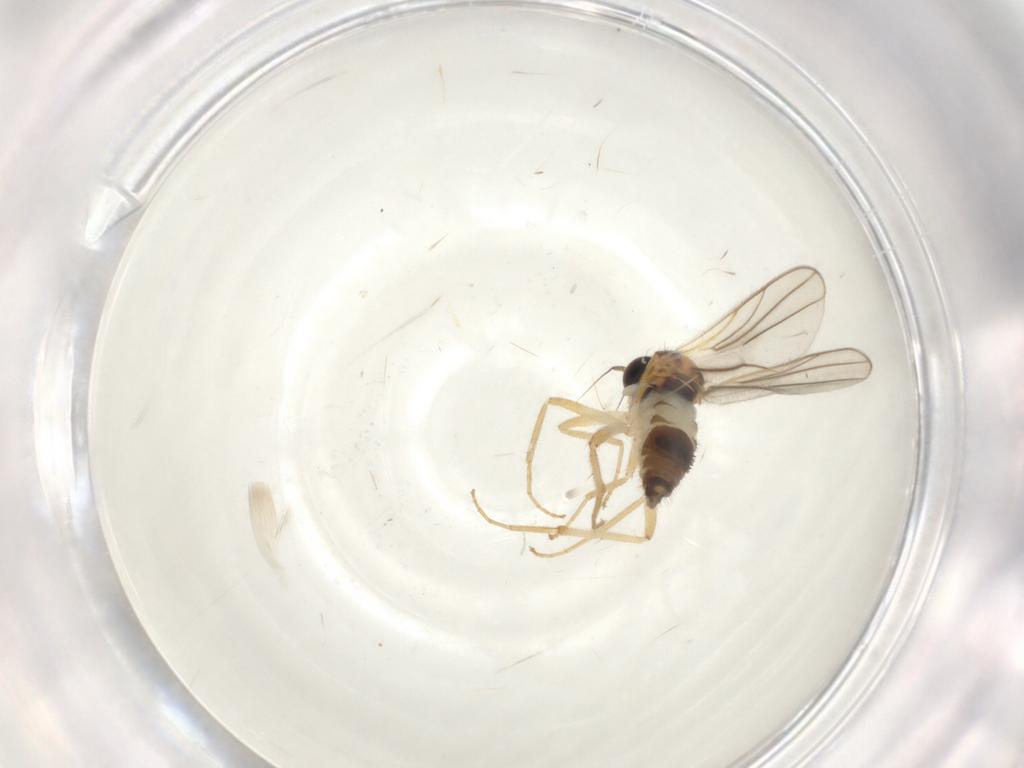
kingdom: Animalia
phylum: Arthropoda
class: Insecta
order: Diptera
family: Hybotidae
